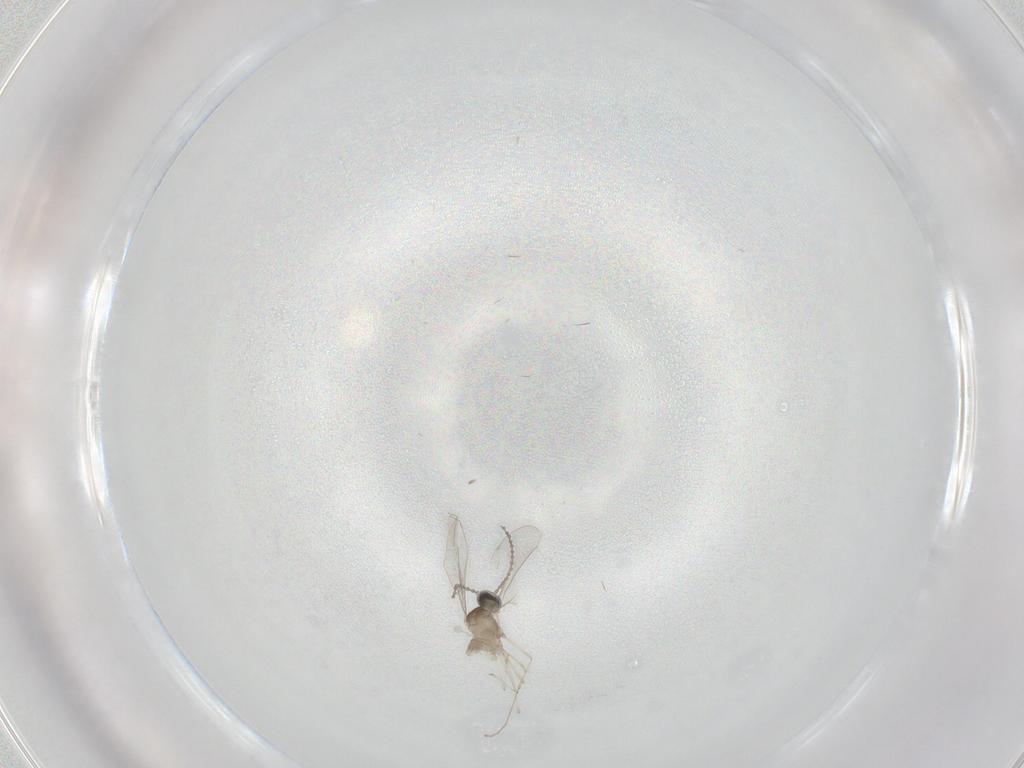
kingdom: Animalia
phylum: Arthropoda
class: Insecta
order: Diptera
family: Cecidomyiidae
